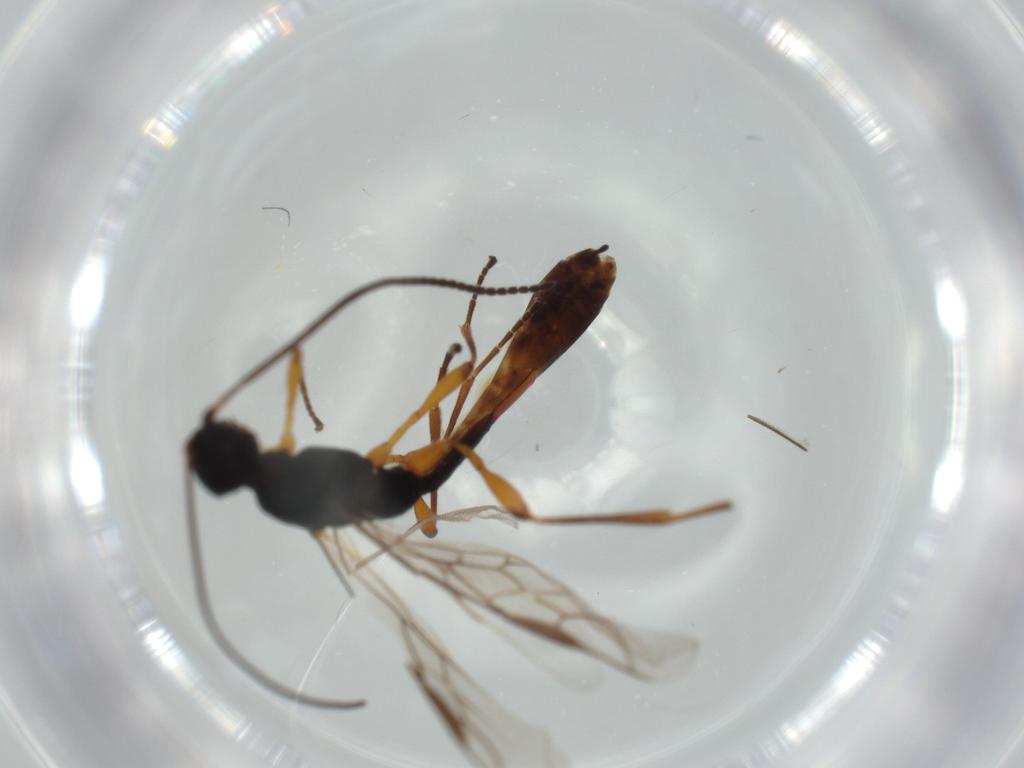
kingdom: Animalia
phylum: Arthropoda
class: Insecta
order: Hymenoptera
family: Braconidae
